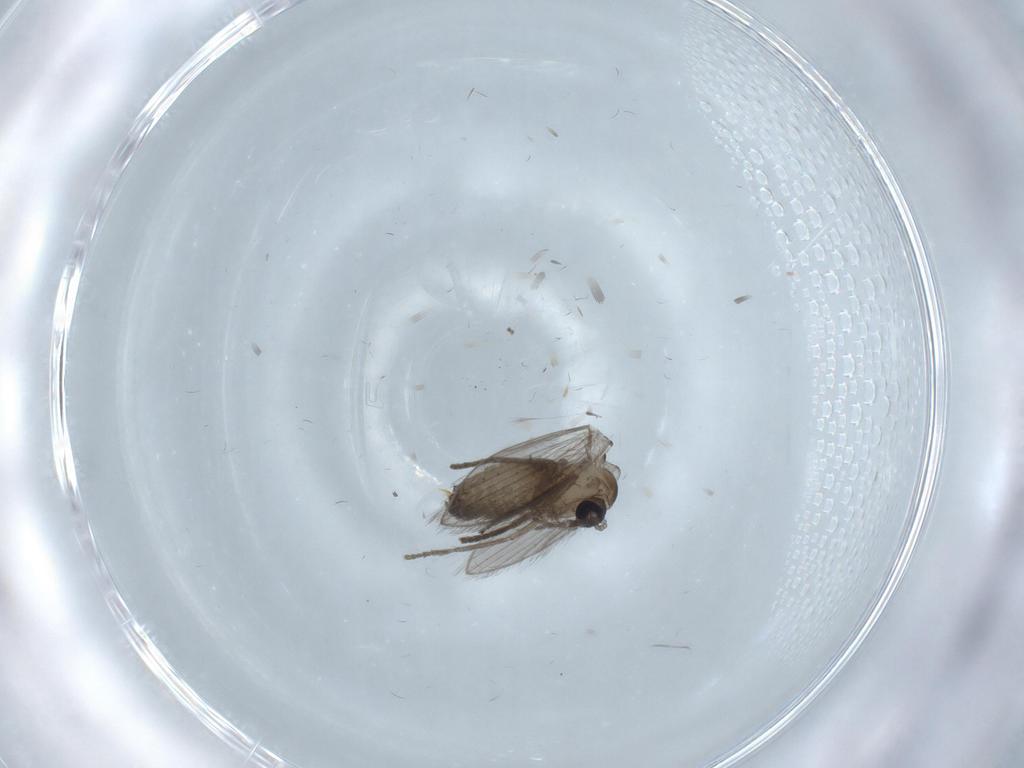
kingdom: Animalia
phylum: Arthropoda
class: Insecta
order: Diptera
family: Psychodidae
